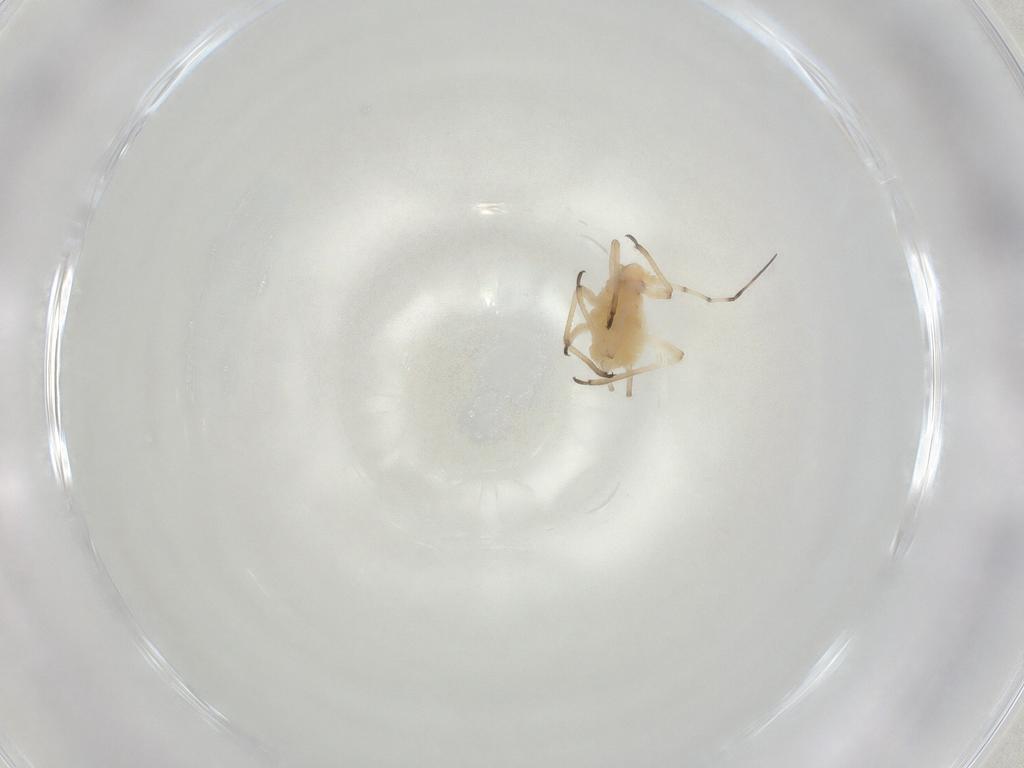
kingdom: Animalia
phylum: Arthropoda
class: Insecta
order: Hemiptera
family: Aphididae
